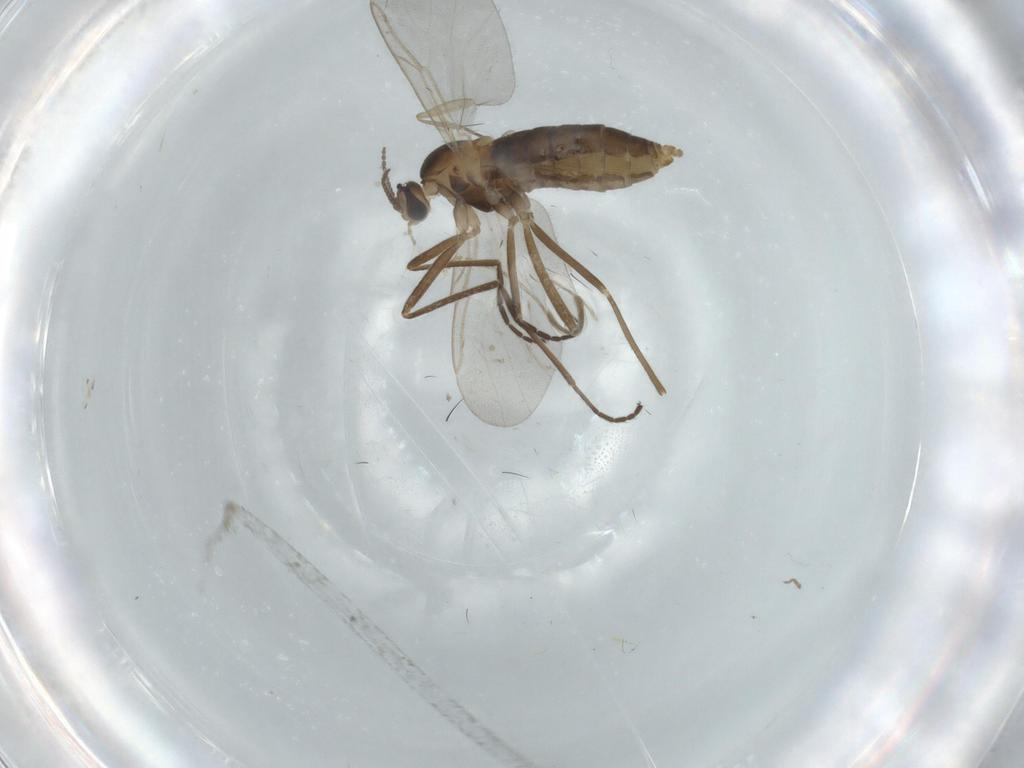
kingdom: Animalia
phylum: Arthropoda
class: Insecta
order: Diptera
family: Cecidomyiidae
